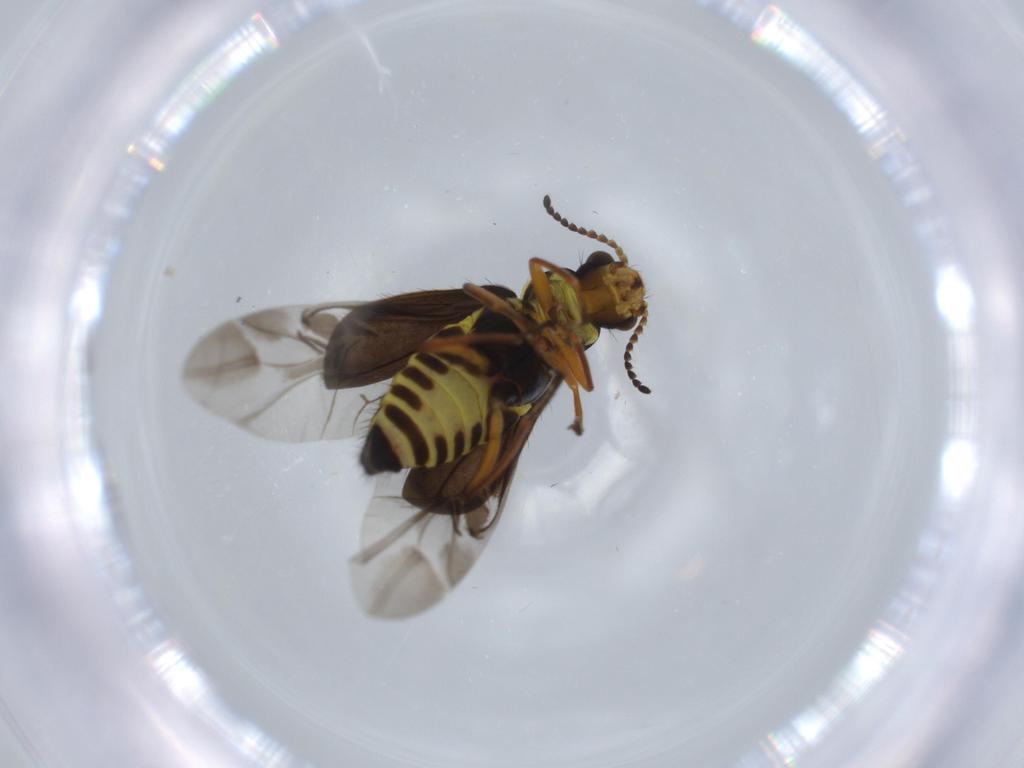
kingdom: Animalia
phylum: Arthropoda
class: Insecta
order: Coleoptera
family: Melyridae
